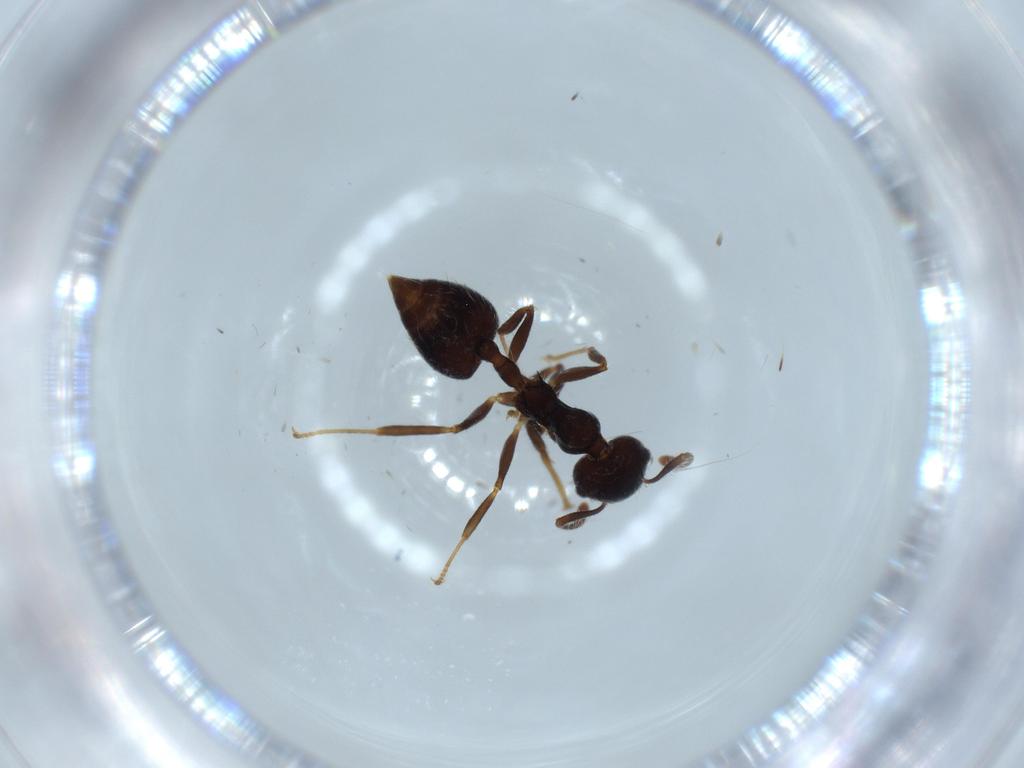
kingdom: Animalia
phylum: Arthropoda
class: Insecta
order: Hymenoptera
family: Formicidae
